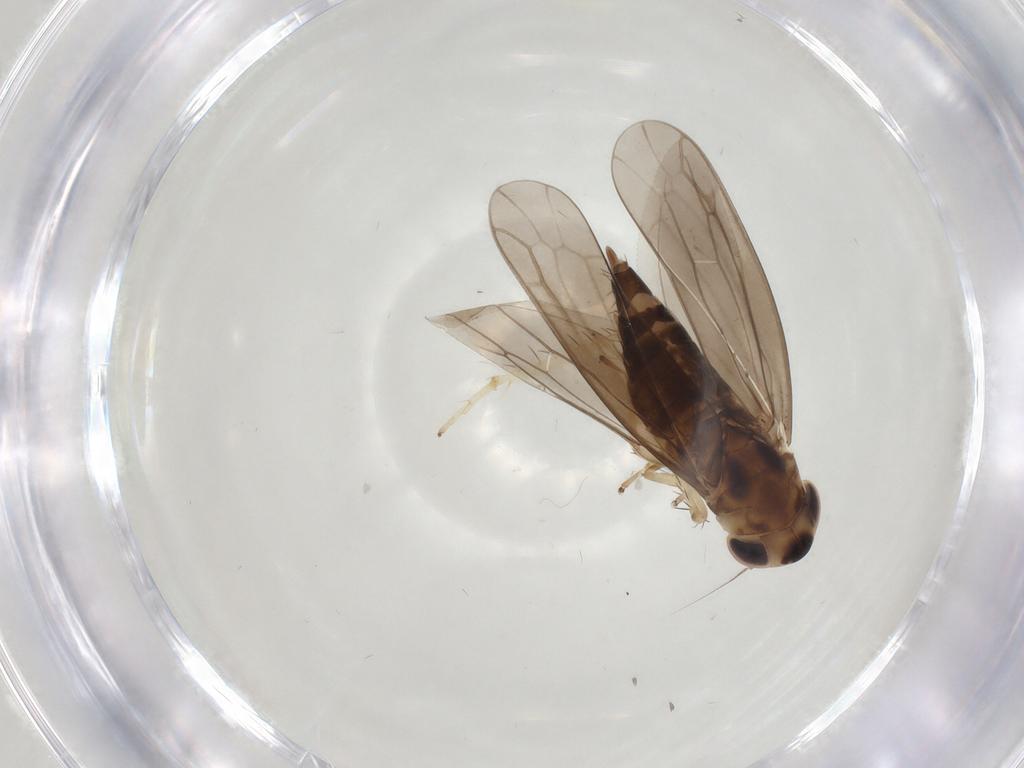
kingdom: Animalia
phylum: Arthropoda
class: Insecta
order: Hemiptera
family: Cicadellidae
